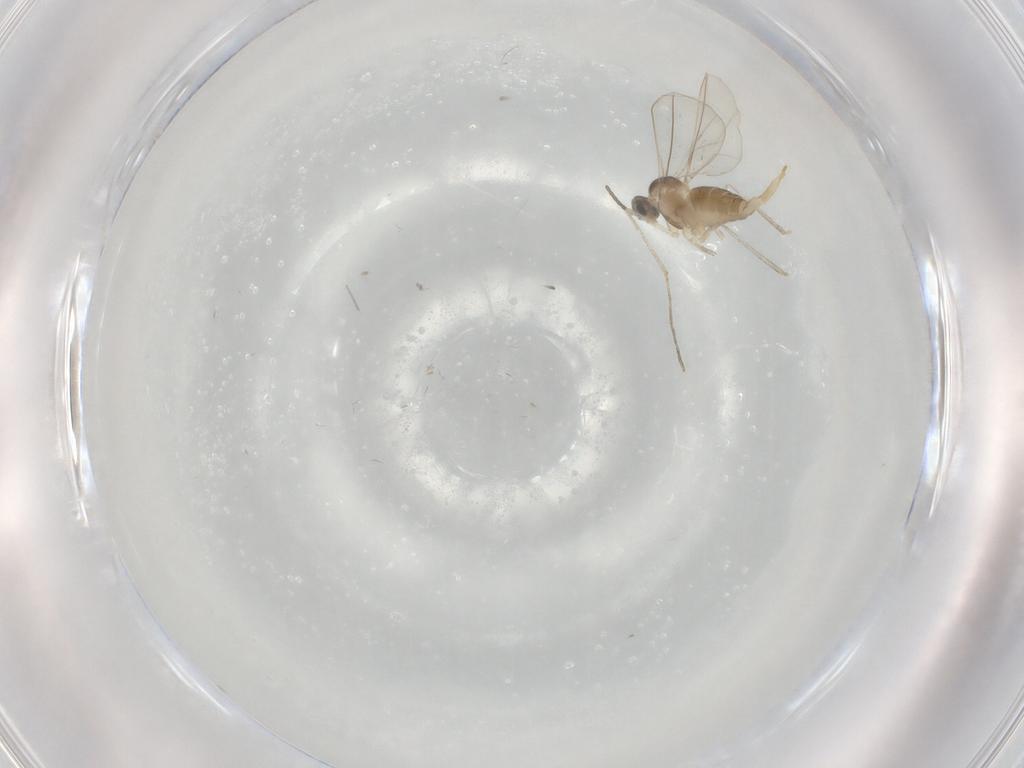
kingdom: Animalia
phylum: Arthropoda
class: Insecta
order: Diptera
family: Cecidomyiidae
